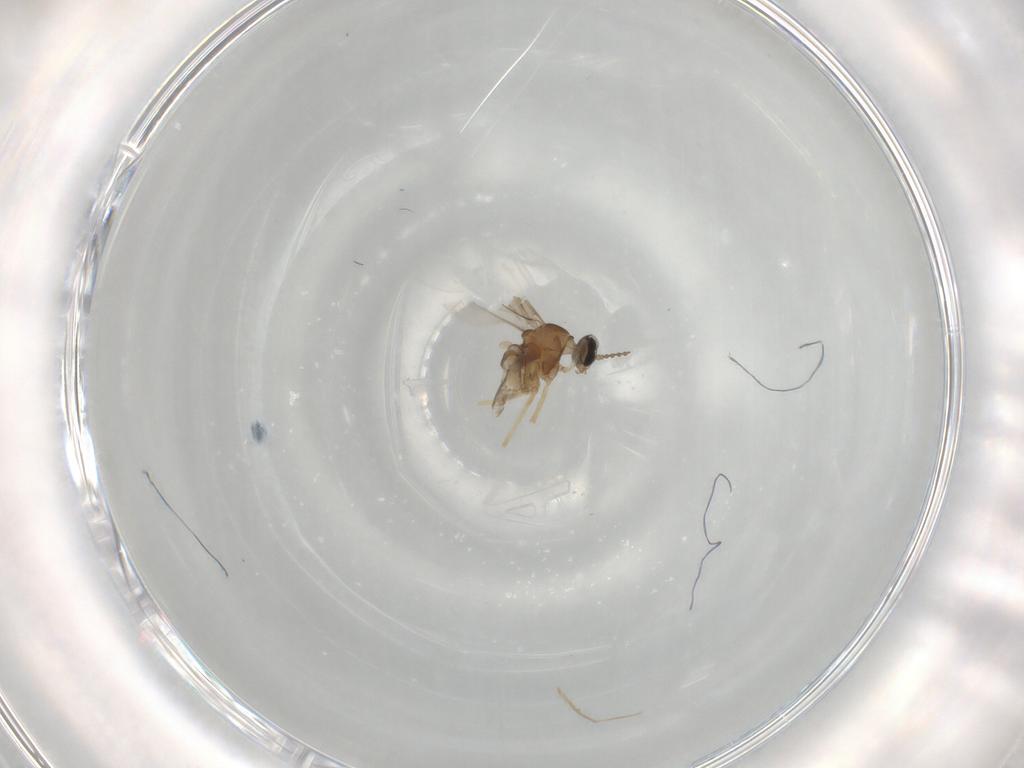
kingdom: Animalia
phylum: Arthropoda
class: Insecta
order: Diptera
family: Cecidomyiidae
